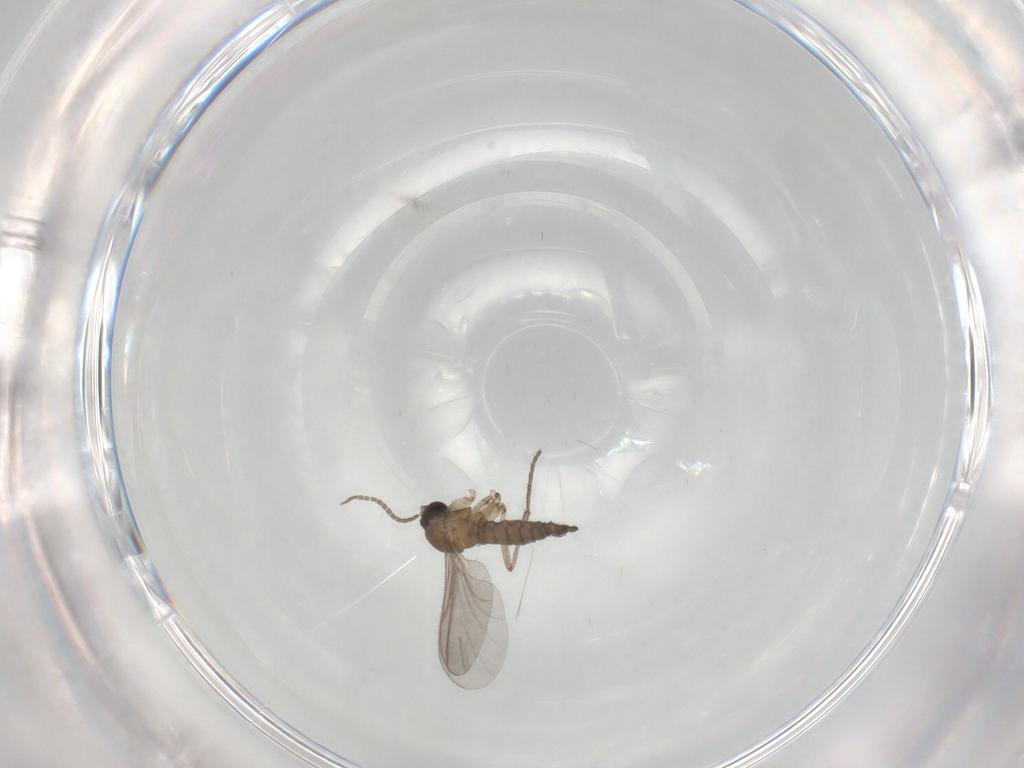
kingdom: Animalia
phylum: Arthropoda
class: Insecta
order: Diptera
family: Sciaridae
